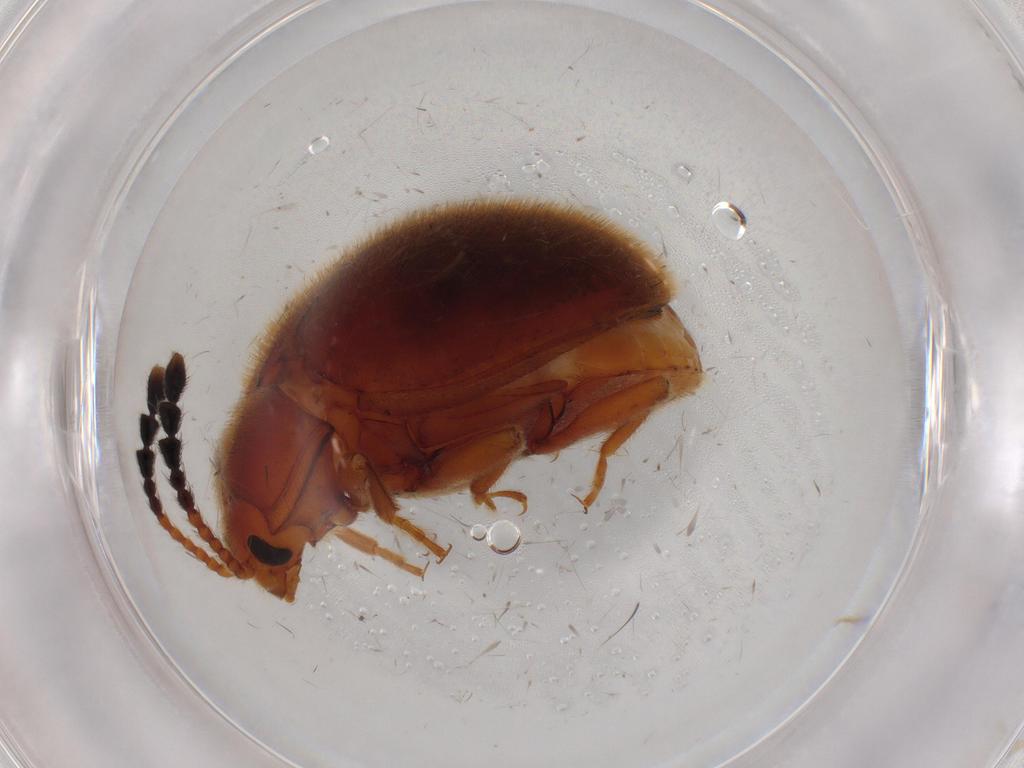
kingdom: Animalia
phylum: Arthropoda
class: Insecta
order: Coleoptera
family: Endomychidae
